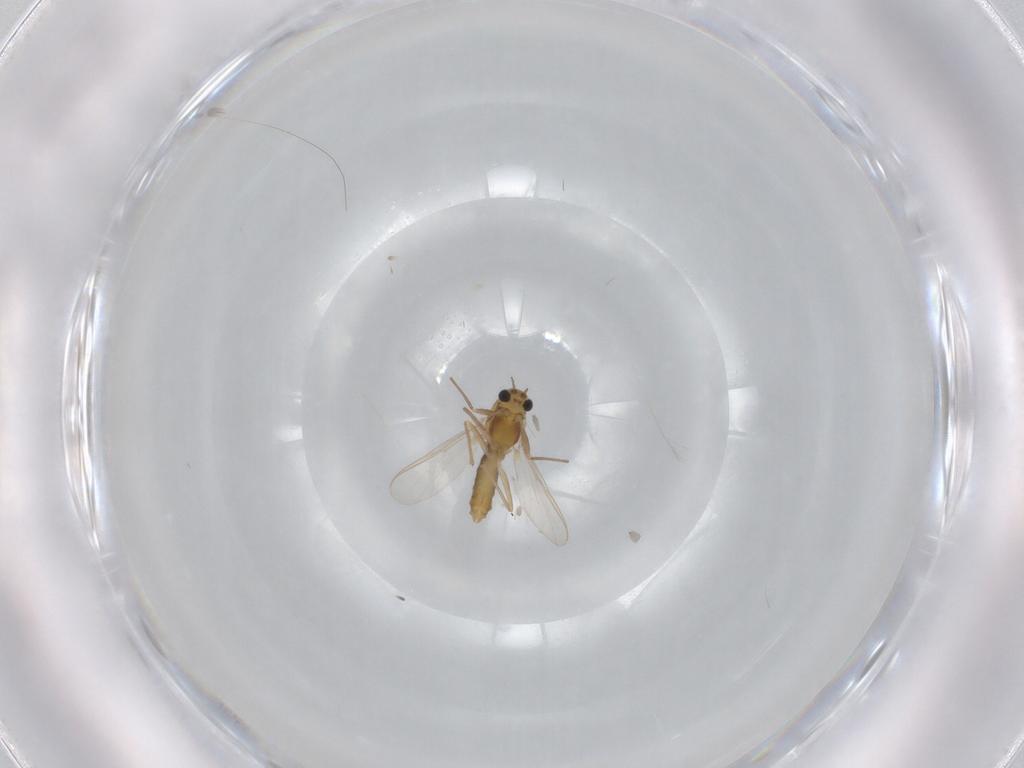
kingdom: Animalia
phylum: Arthropoda
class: Insecta
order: Diptera
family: Chironomidae
